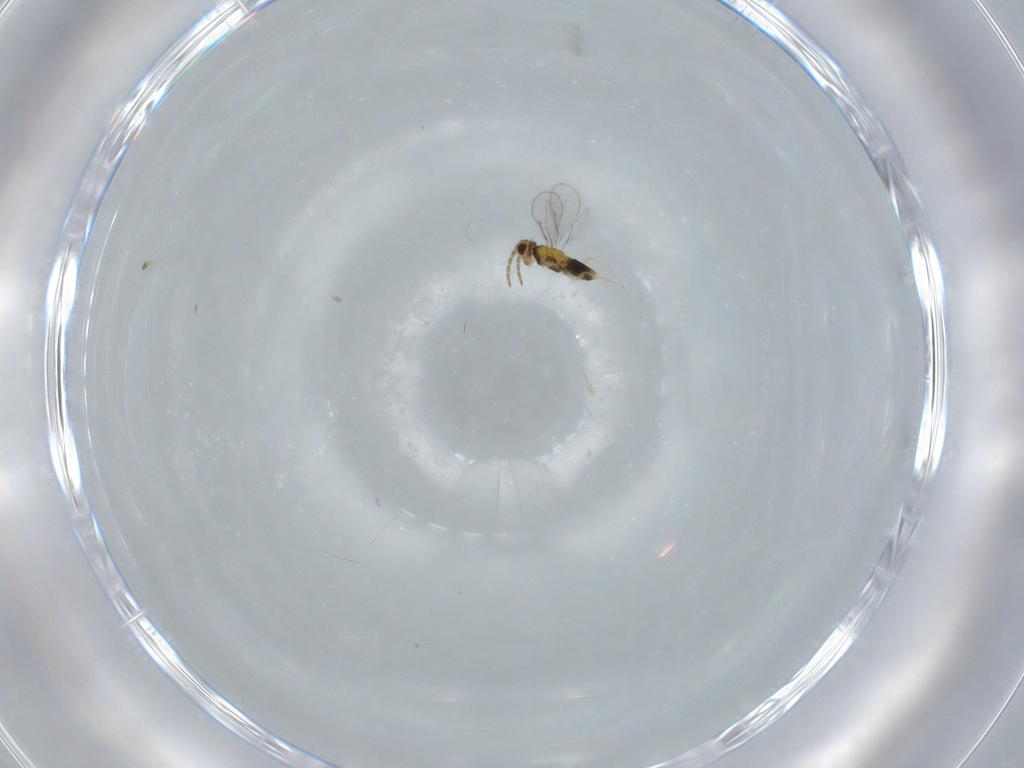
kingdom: Animalia
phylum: Arthropoda
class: Insecta
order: Hymenoptera
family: Aphelinidae
